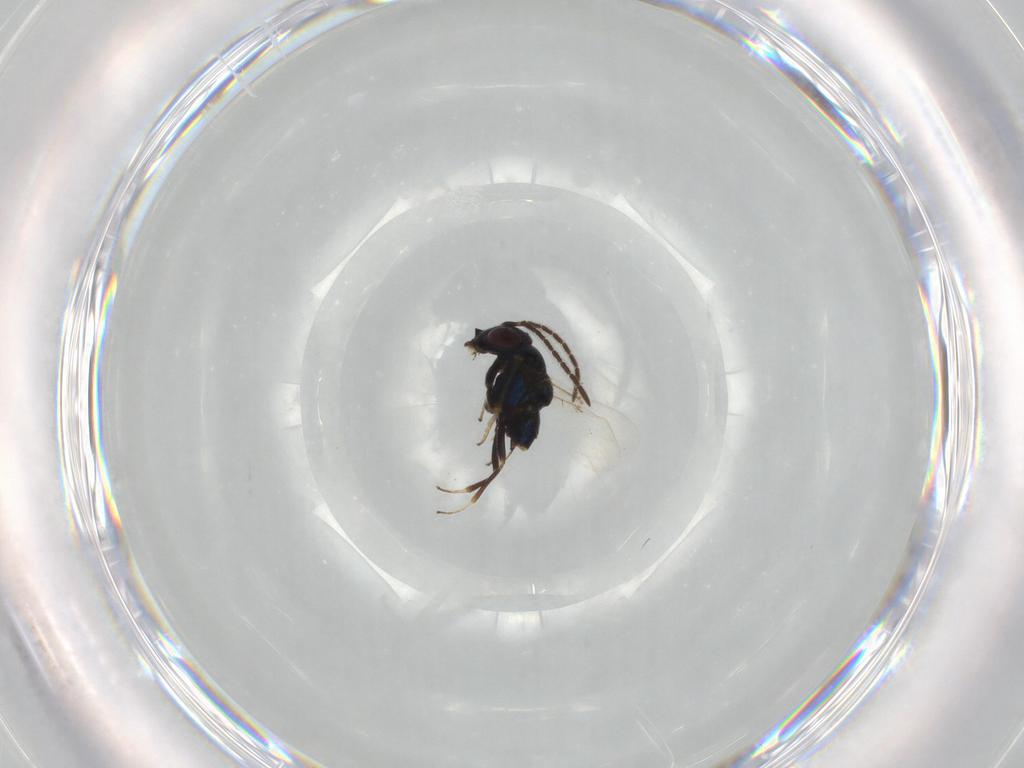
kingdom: Animalia
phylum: Arthropoda
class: Insecta
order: Hymenoptera
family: Encyrtidae
